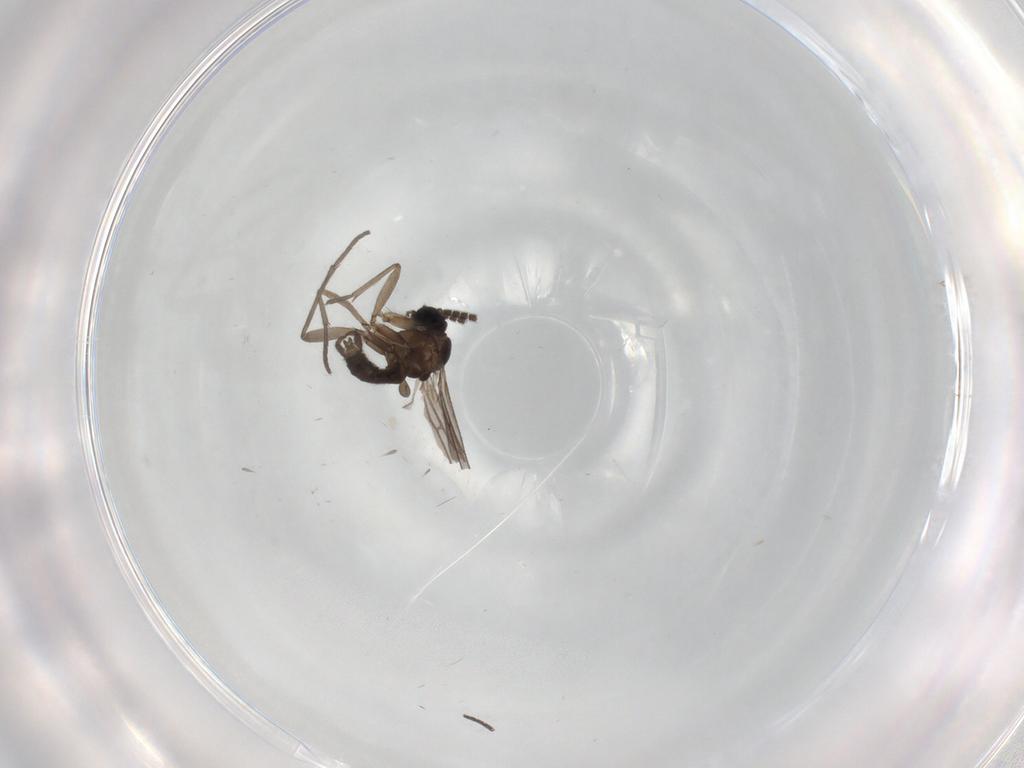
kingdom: Animalia
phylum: Arthropoda
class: Insecta
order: Diptera
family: Sciaridae
